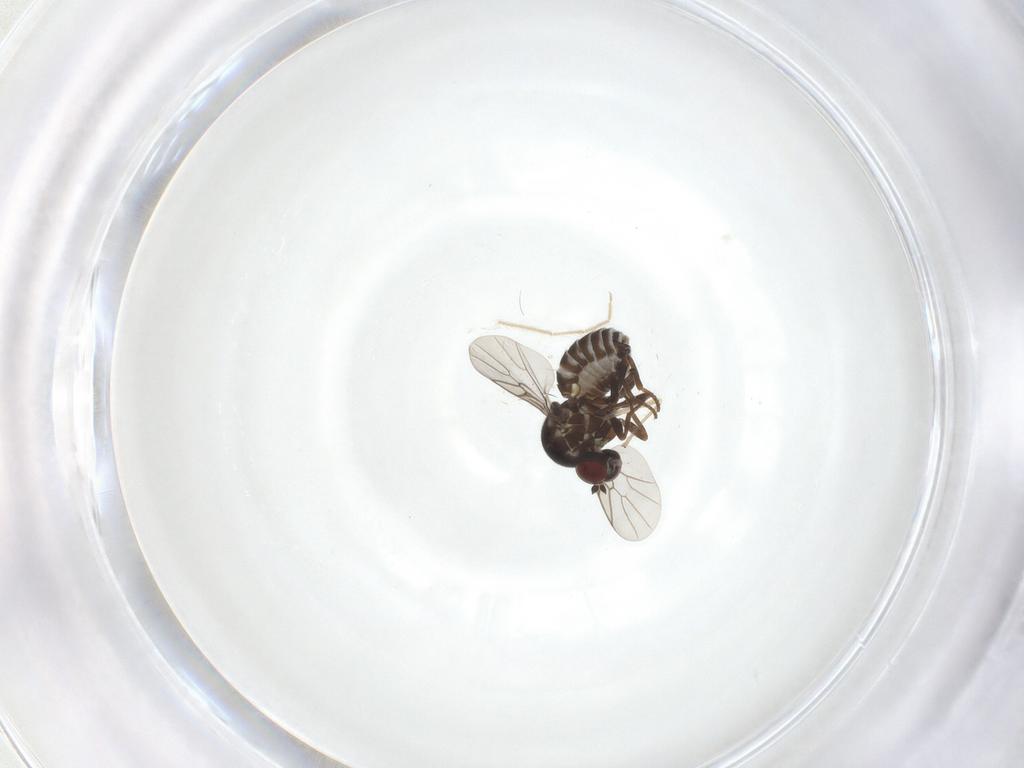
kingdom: Animalia
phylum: Arthropoda
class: Insecta
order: Diptera
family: Mythicomyiidae
